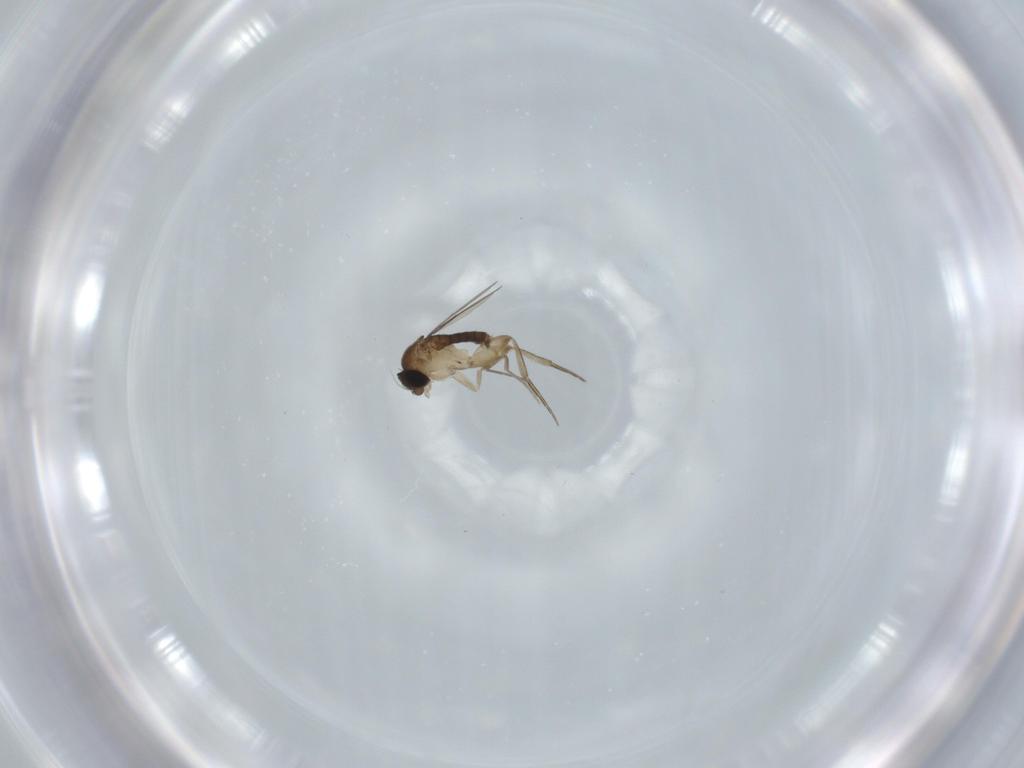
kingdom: Animalia
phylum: Arthropoda
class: Insecta
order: Diptera
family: Phoridae
